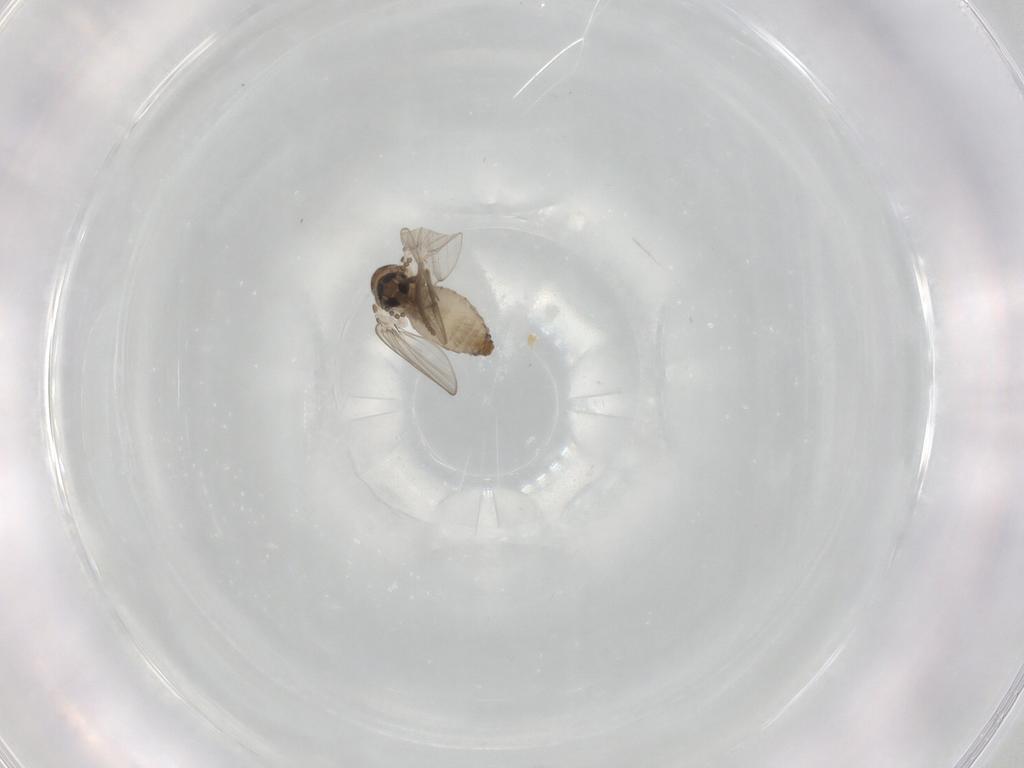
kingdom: Animalia
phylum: Arthropoda
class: Insecta
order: Diptera
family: Psychodidae
